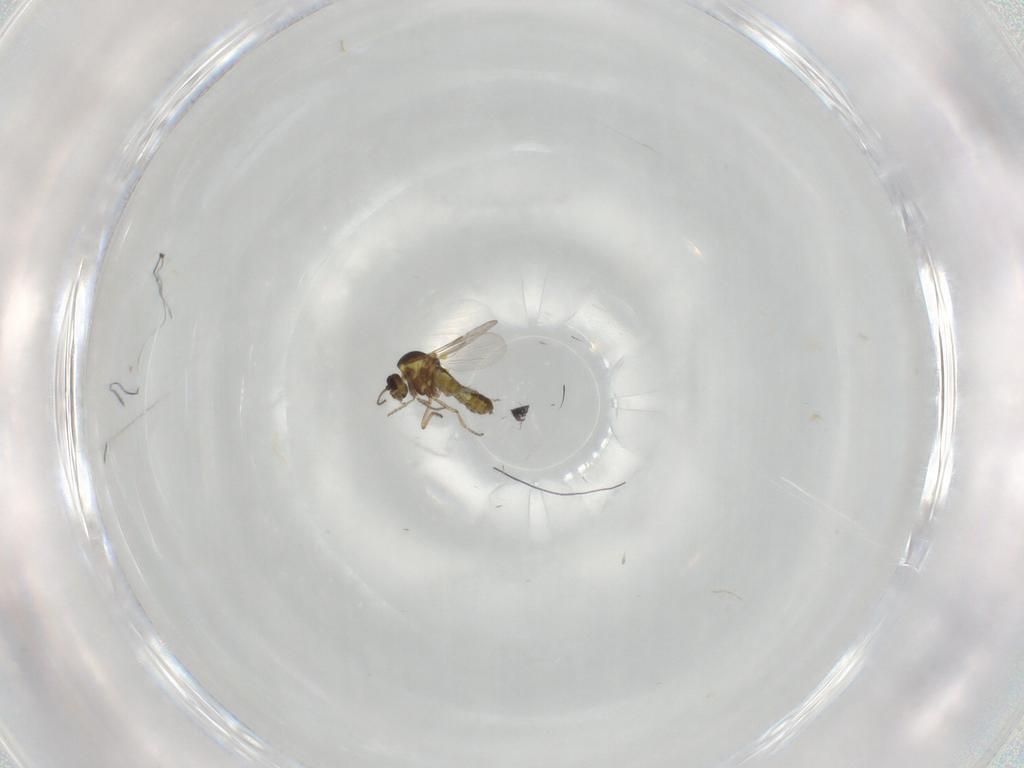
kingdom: Animalia
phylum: Arthropoda
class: Insecta
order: Diptera
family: Ceratopogonidae
